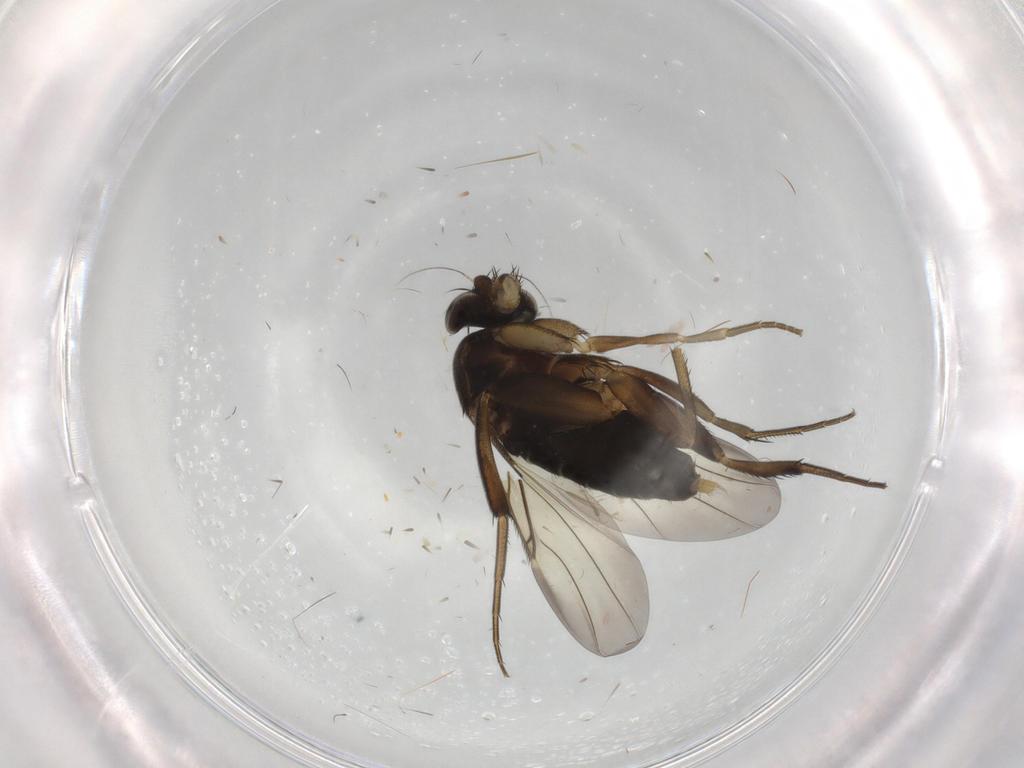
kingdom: Animalia
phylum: Arthropoda
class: Insecta
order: Diptera
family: Phoridae
